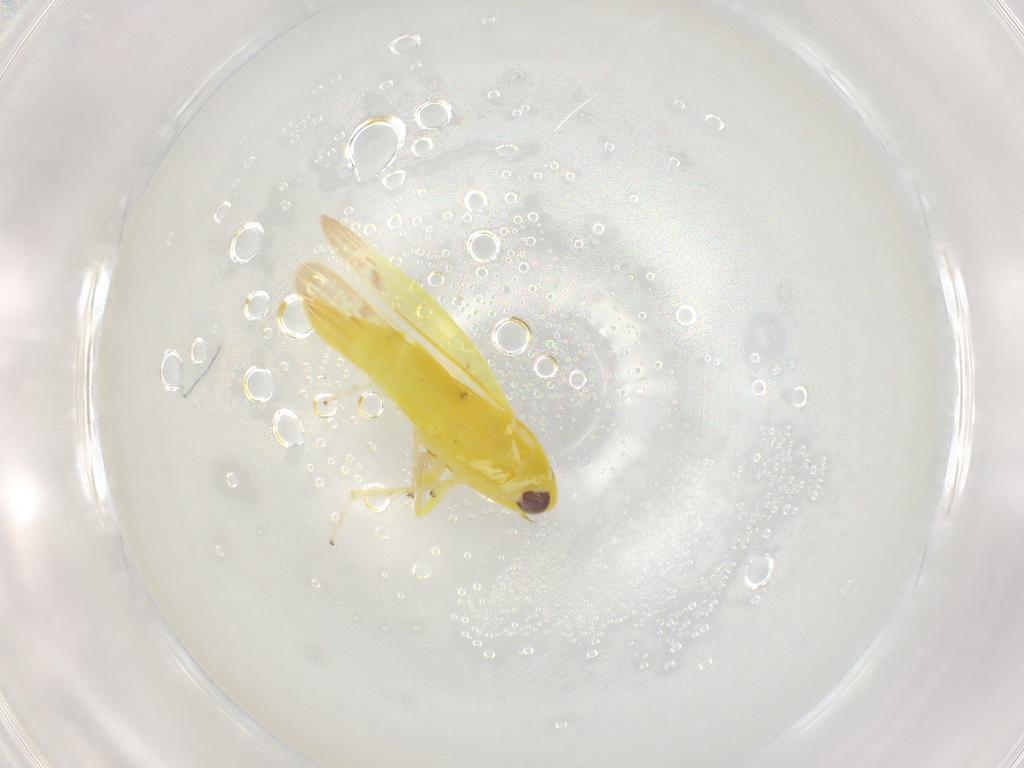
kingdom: Animalia
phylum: Arthropoda
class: Insecta
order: Hemiptera
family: Cicadellidae
